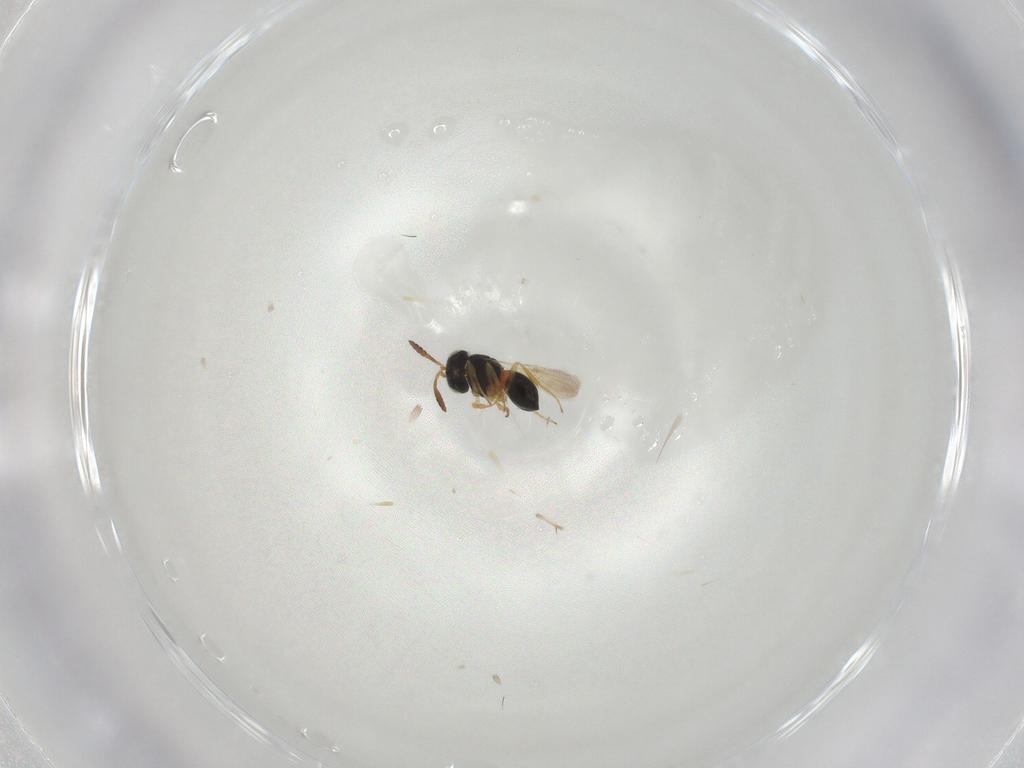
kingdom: Animalia
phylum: Arthropoda
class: Insecta
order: Hymenoptera
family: Scelionidae
